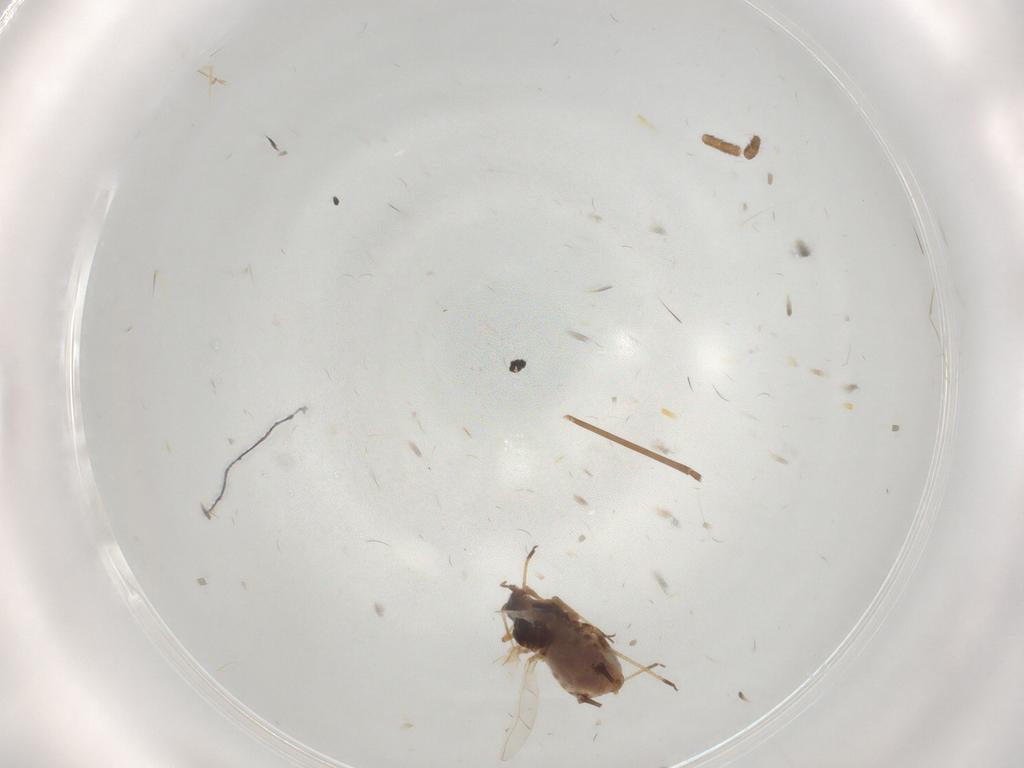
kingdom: Animalia
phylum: Arthropoda
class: Insecta
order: Hemiptera
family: Aphididae
